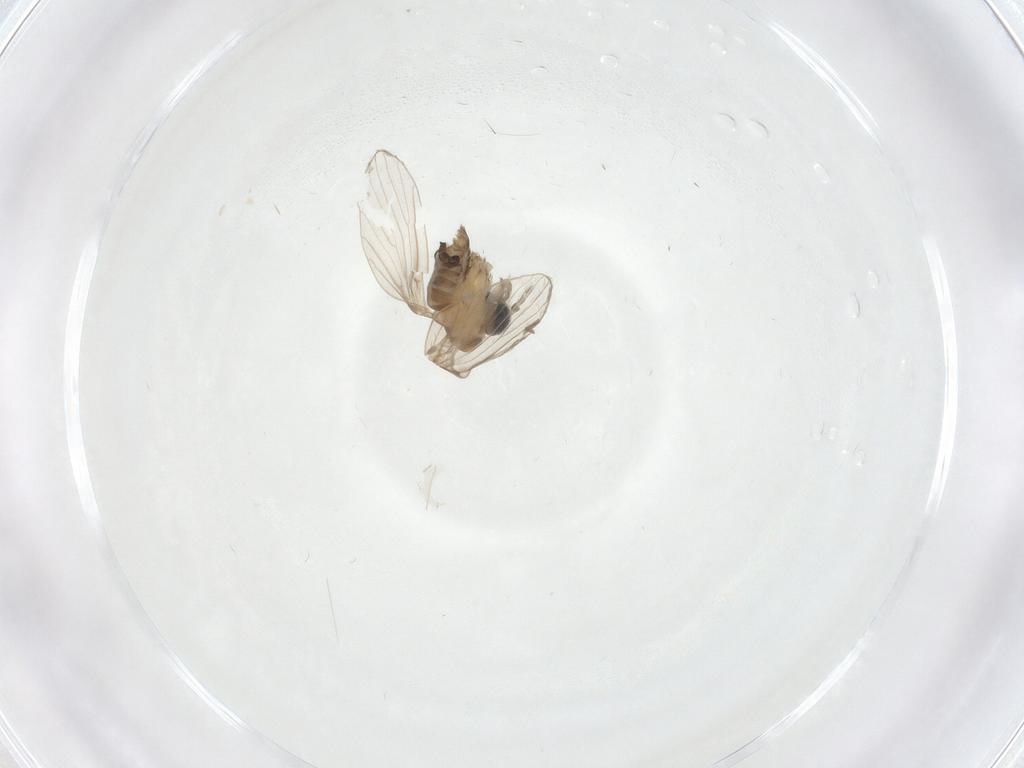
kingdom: Animalia
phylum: Arthropoda
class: Insecta
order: Diptera
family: Psychodidae
